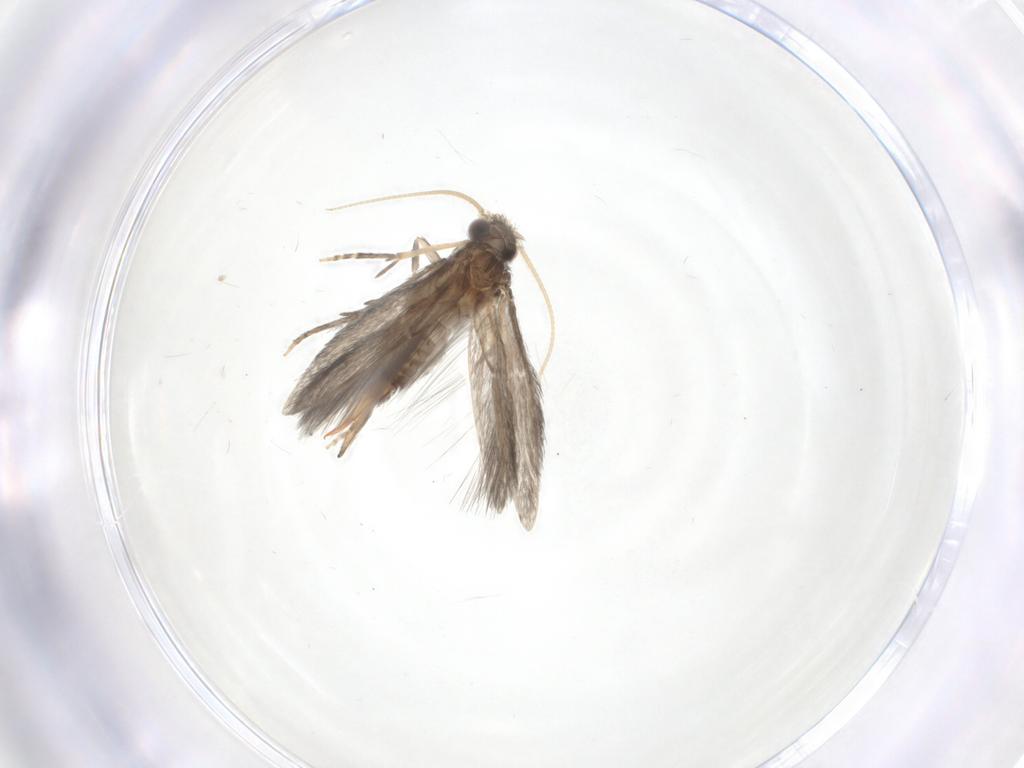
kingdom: Animalia
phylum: Arthropoda
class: Insecta
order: Trichoptera
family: Hydroptilidae
